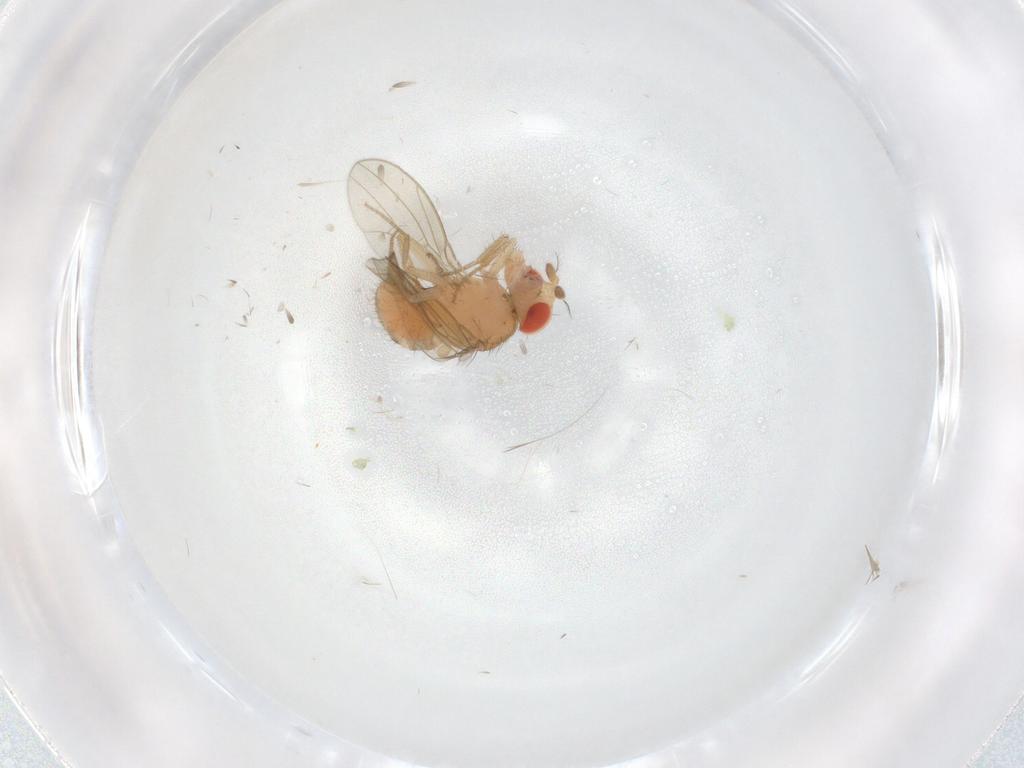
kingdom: Animalia
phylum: Arthropoda
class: Insecta
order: Diptera
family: Drosophilidae
